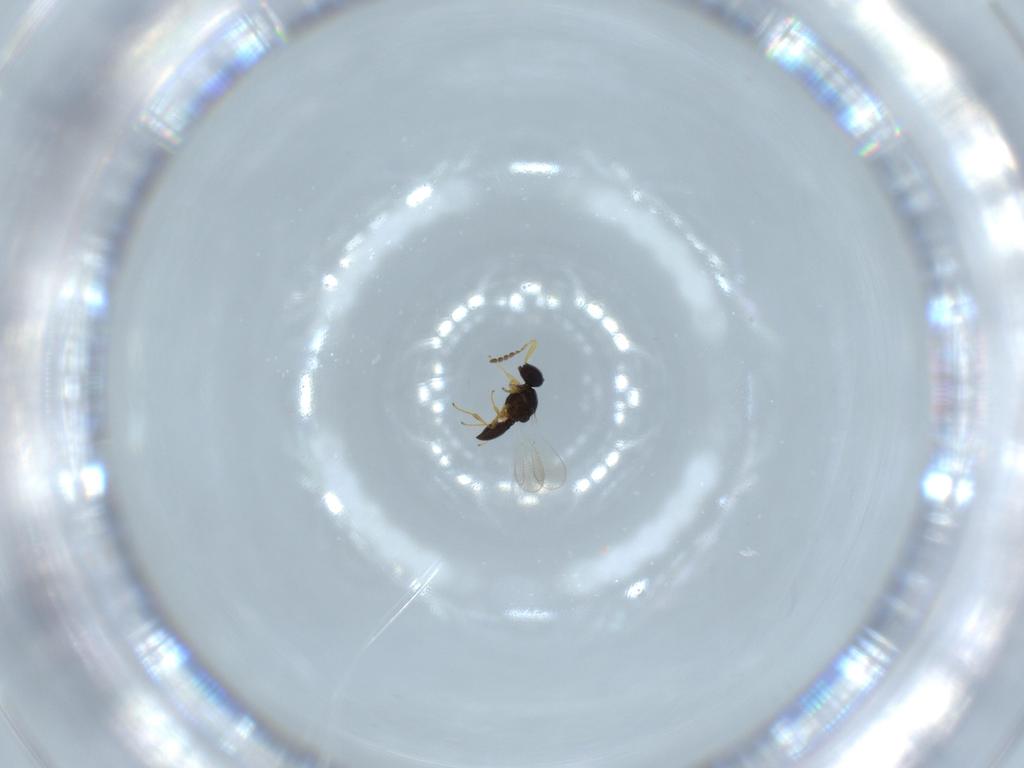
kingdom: Animalia
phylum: Arthropoda
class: Insecta
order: Hymenoptera
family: Platygastridae
